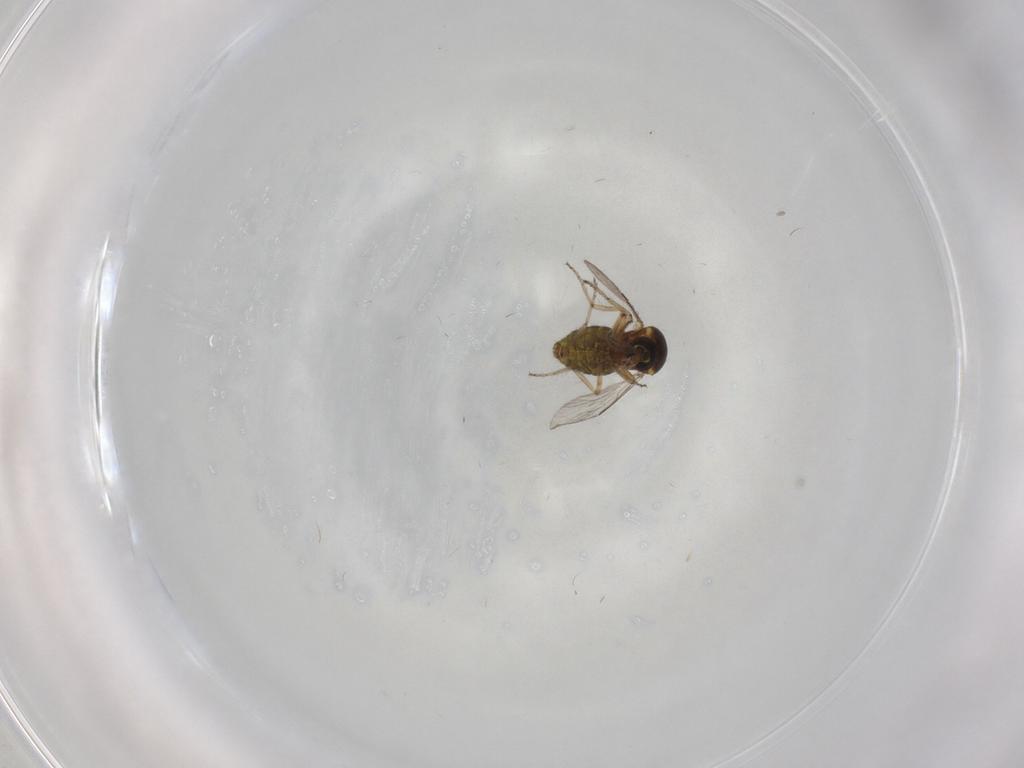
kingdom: Animalia
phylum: Arthropoda
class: Insecta
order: Diptera
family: Ceratopogonidae
